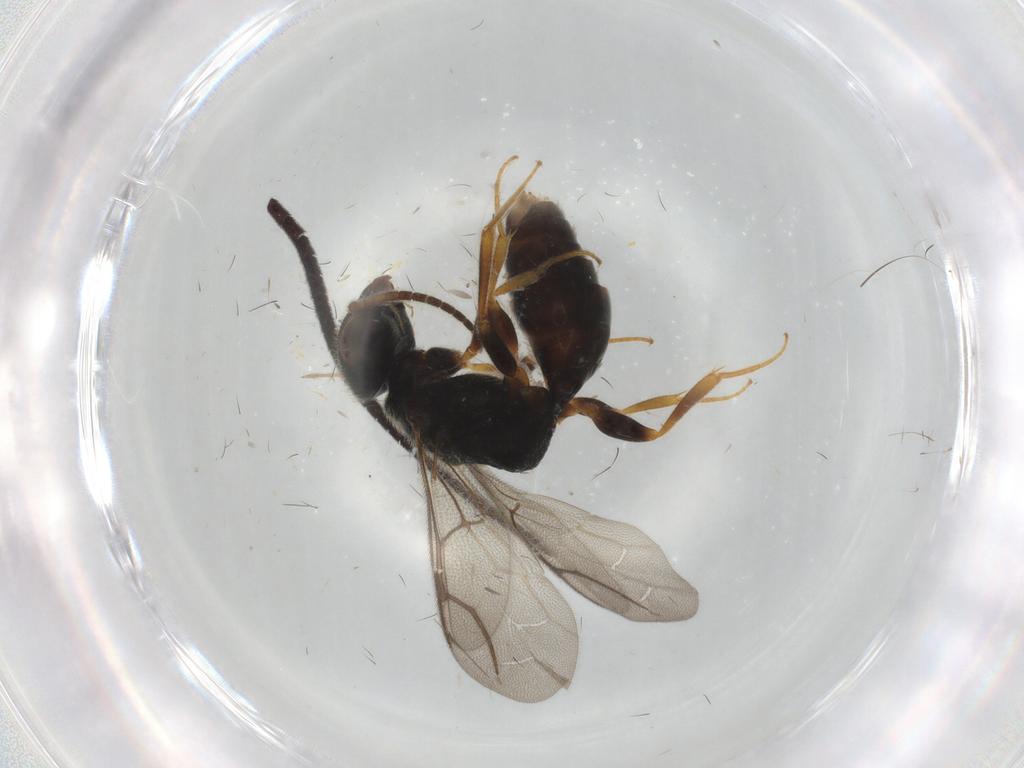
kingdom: Animalia
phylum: Arthropoda
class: Insecta
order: Hymenoptera
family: Bethylidae
